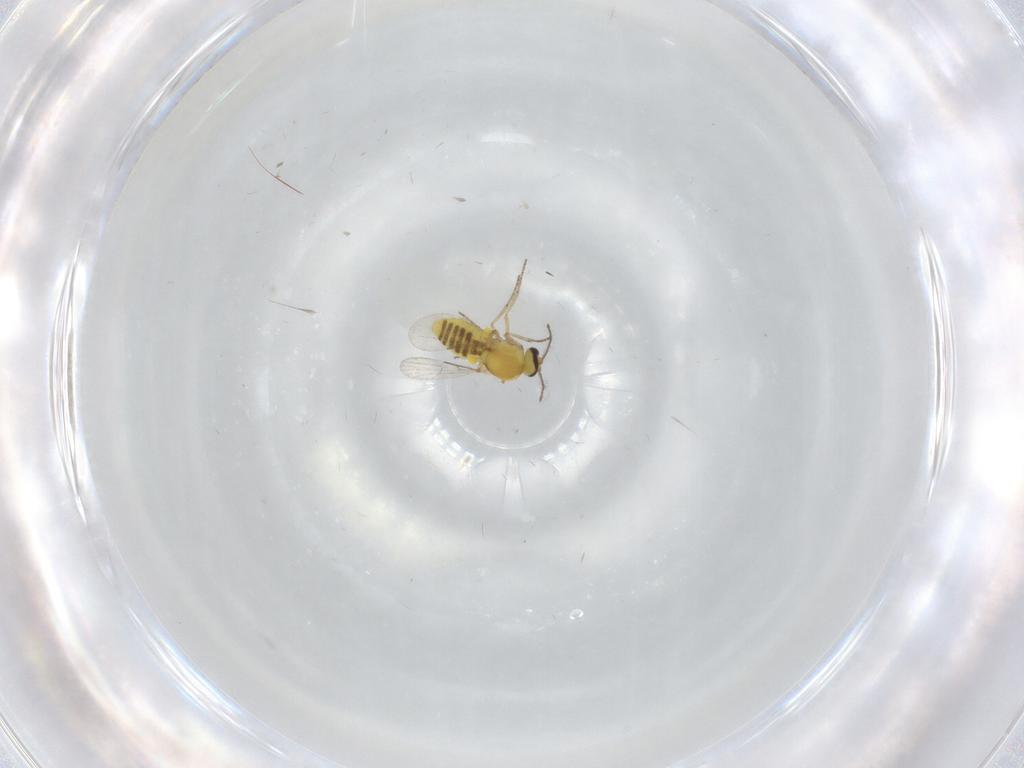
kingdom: Animalia
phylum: Arthropoda
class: Insecta
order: Diptera
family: Ceratopogonidae
